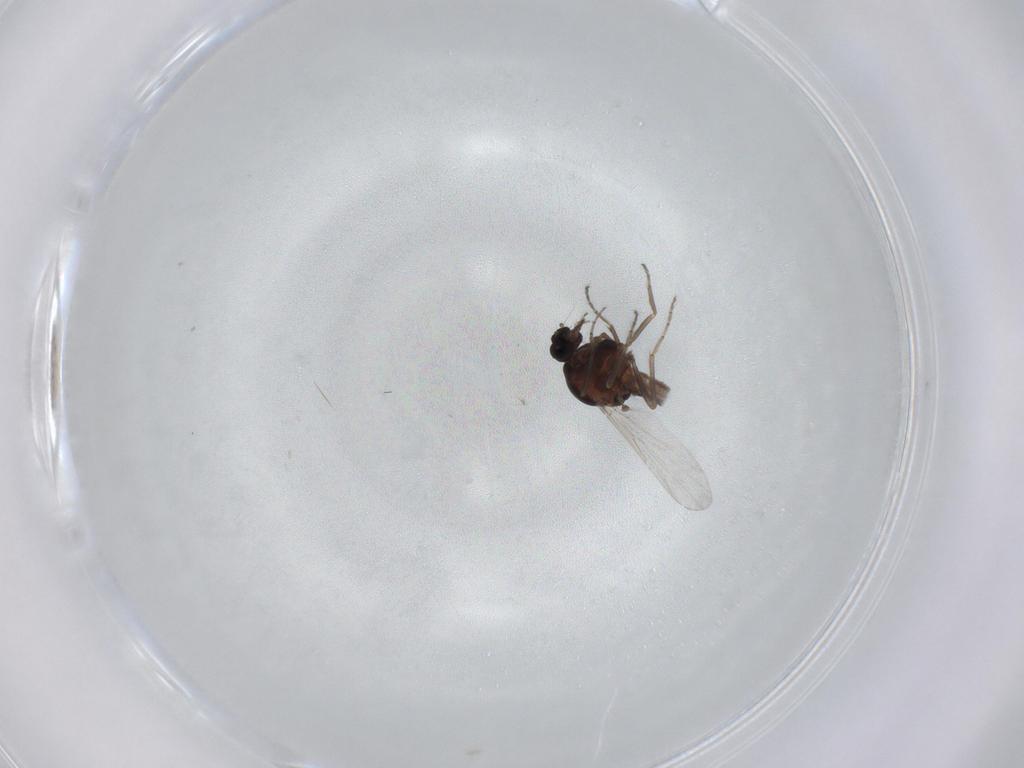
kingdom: Animalia
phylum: Arthropoda
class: Insecta
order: Diptera
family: Ceratopogonidae
